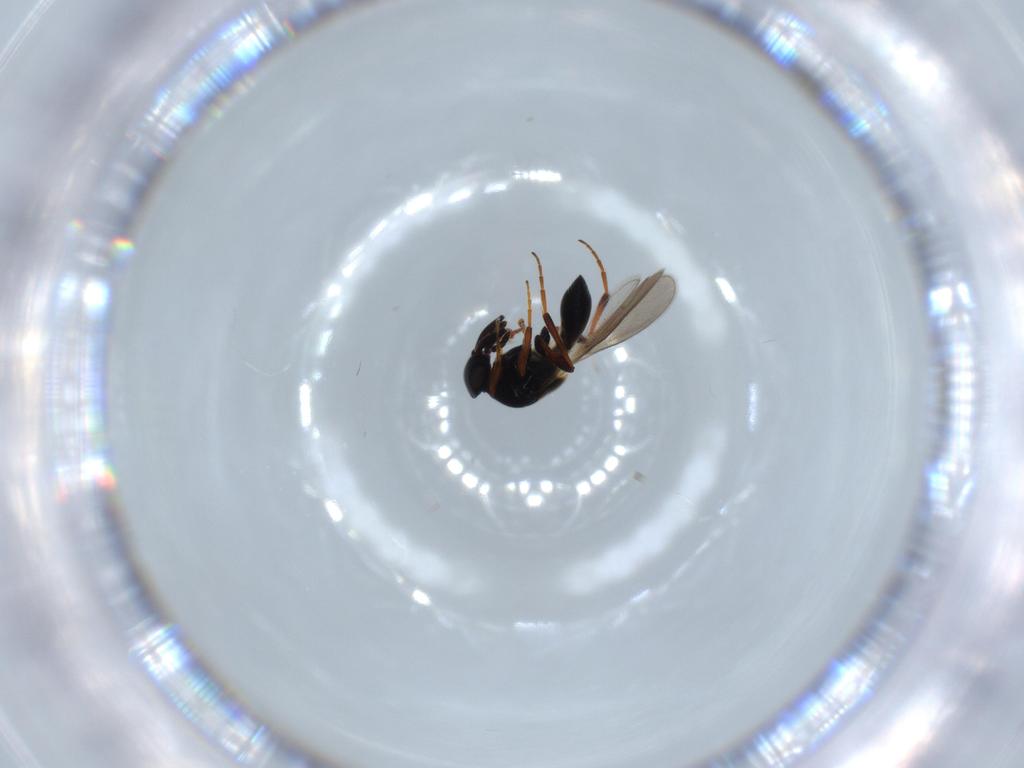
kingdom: Animalia
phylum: Arthropoda
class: Insecta
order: Hymenoptera
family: Platygastridae
